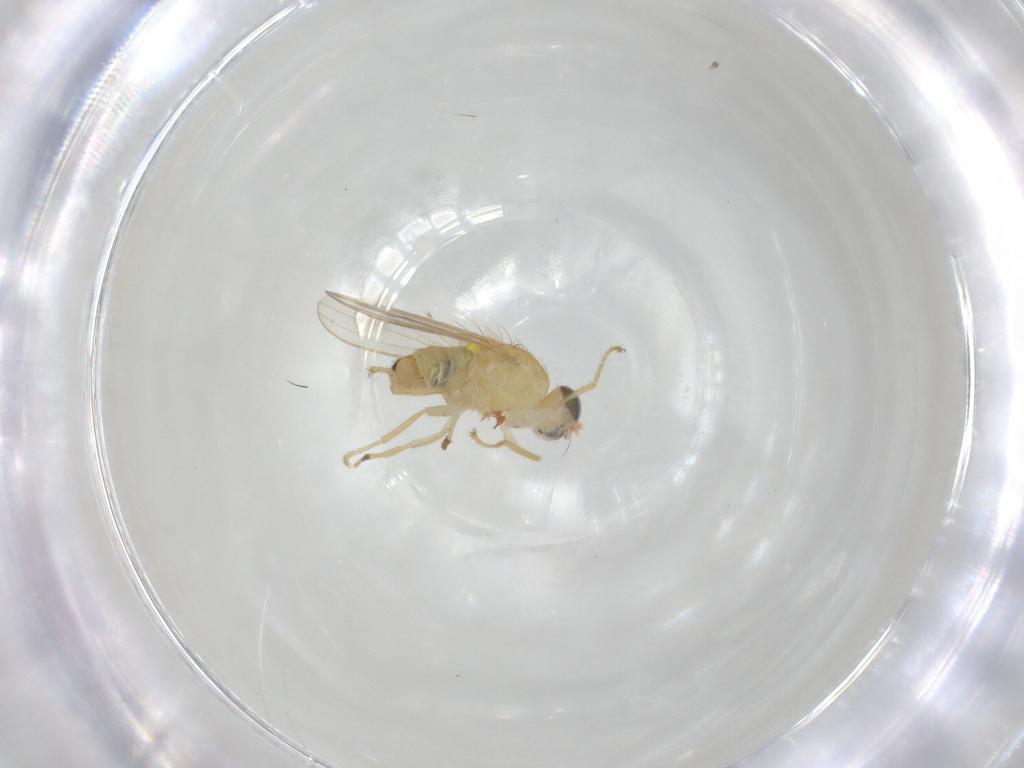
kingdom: Animalia
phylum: Arthropoda
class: Insecta
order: Diptera
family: Chyromyidae
